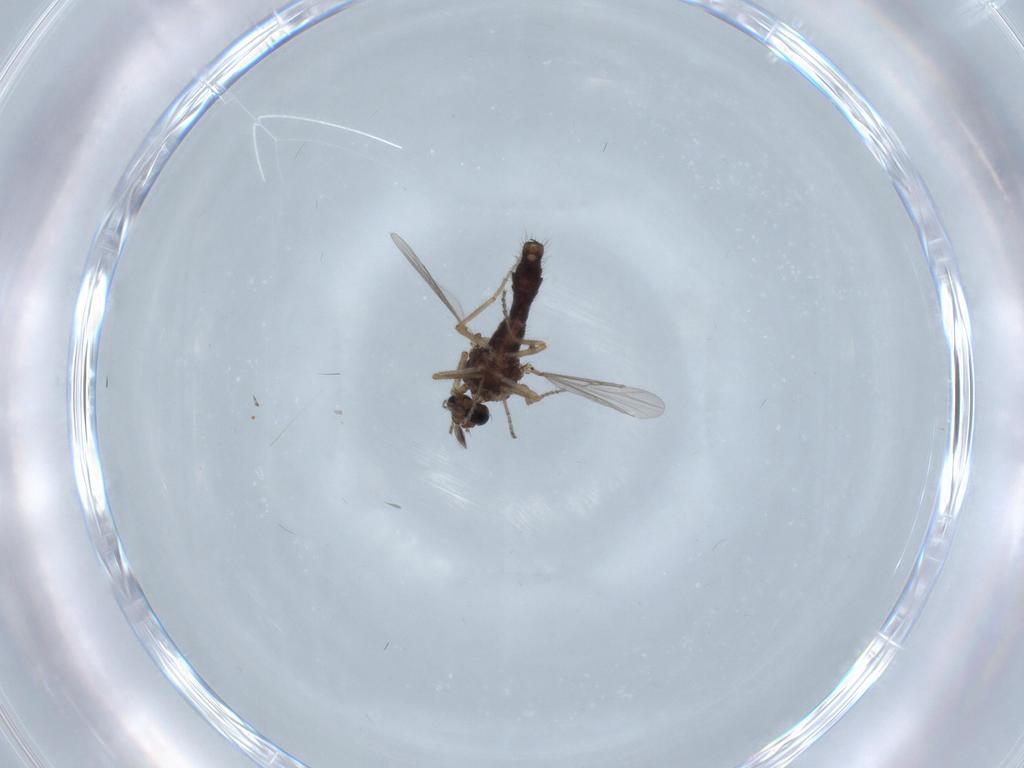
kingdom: Animalia
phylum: Arthropoda
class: Insecta
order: Diptera
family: Ceratopogonidae
